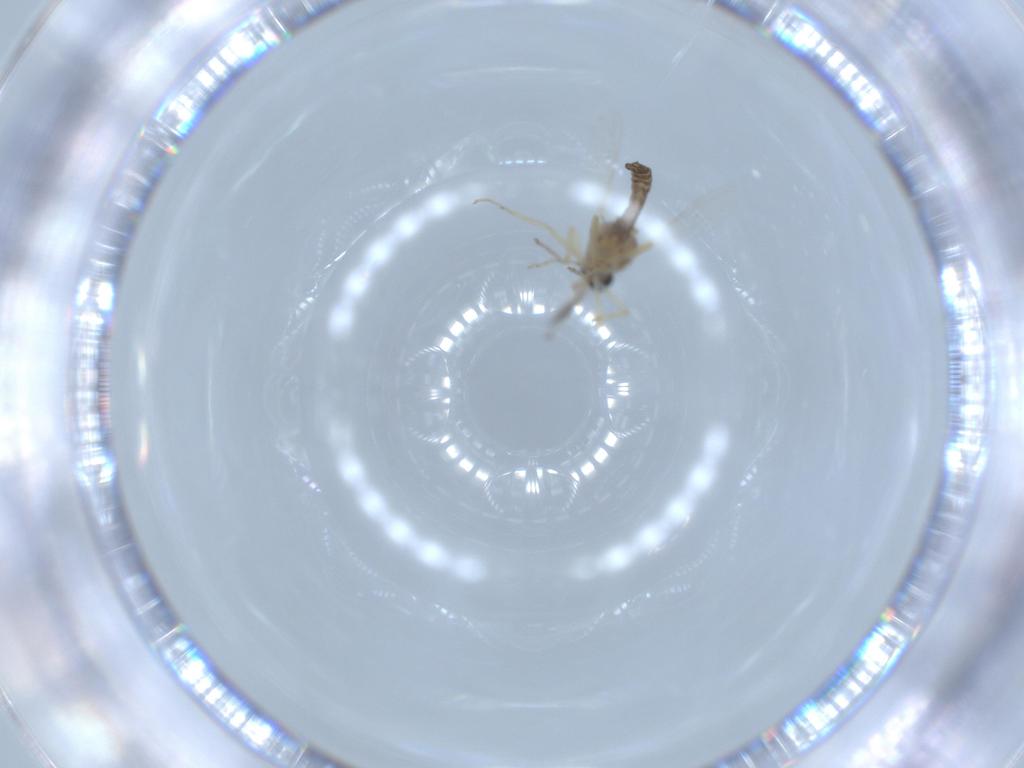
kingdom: Animalia
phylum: Arthropoda
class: Insecta
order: Diptera
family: Ceratopogonidae
